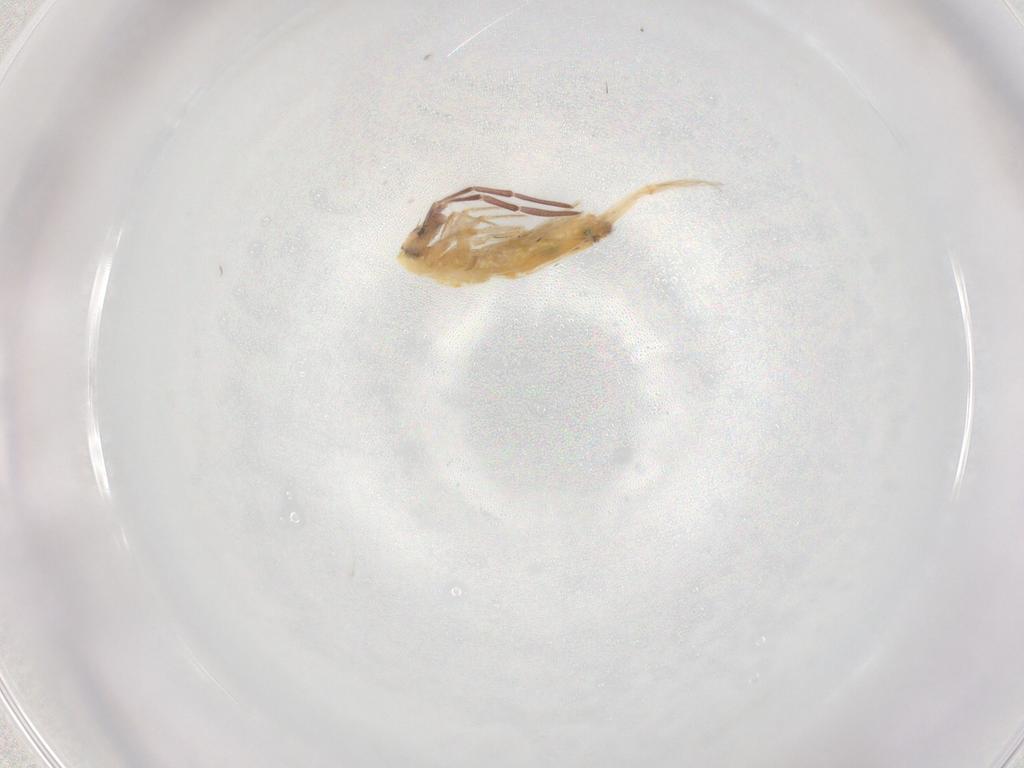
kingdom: Animalia
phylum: Arthropoda
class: Collembola
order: Entomobryomorpha
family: Entomobryidae
